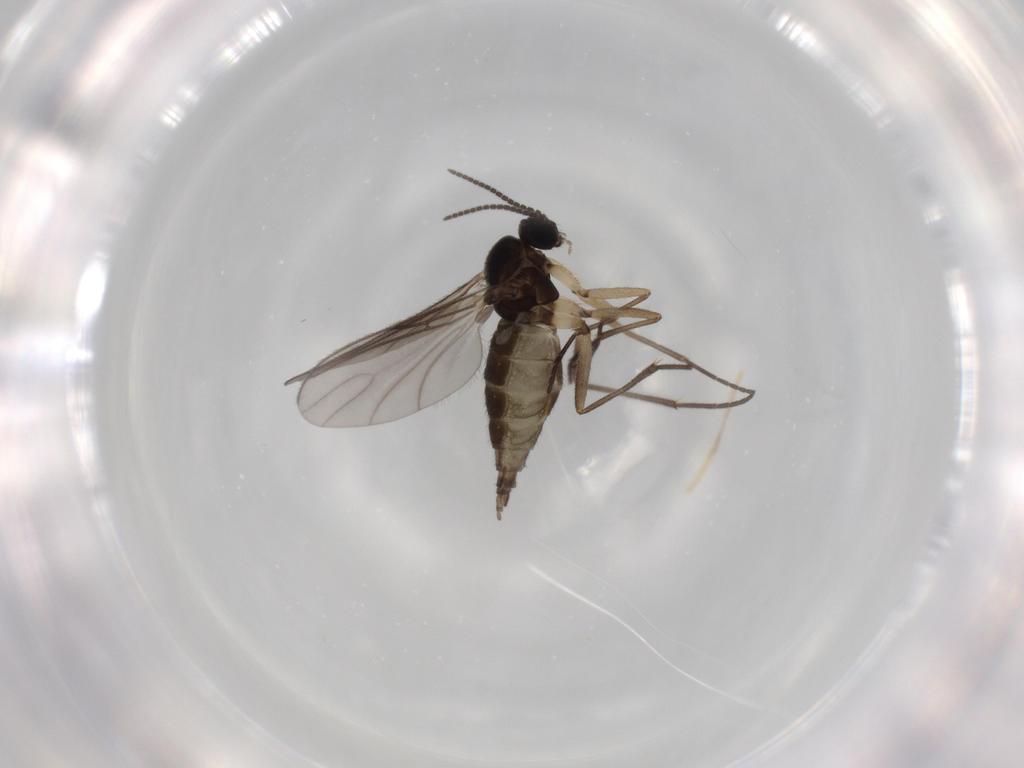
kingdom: Animalia
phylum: Arthropoda
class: Insecta
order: Diptera
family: Sciaridae
